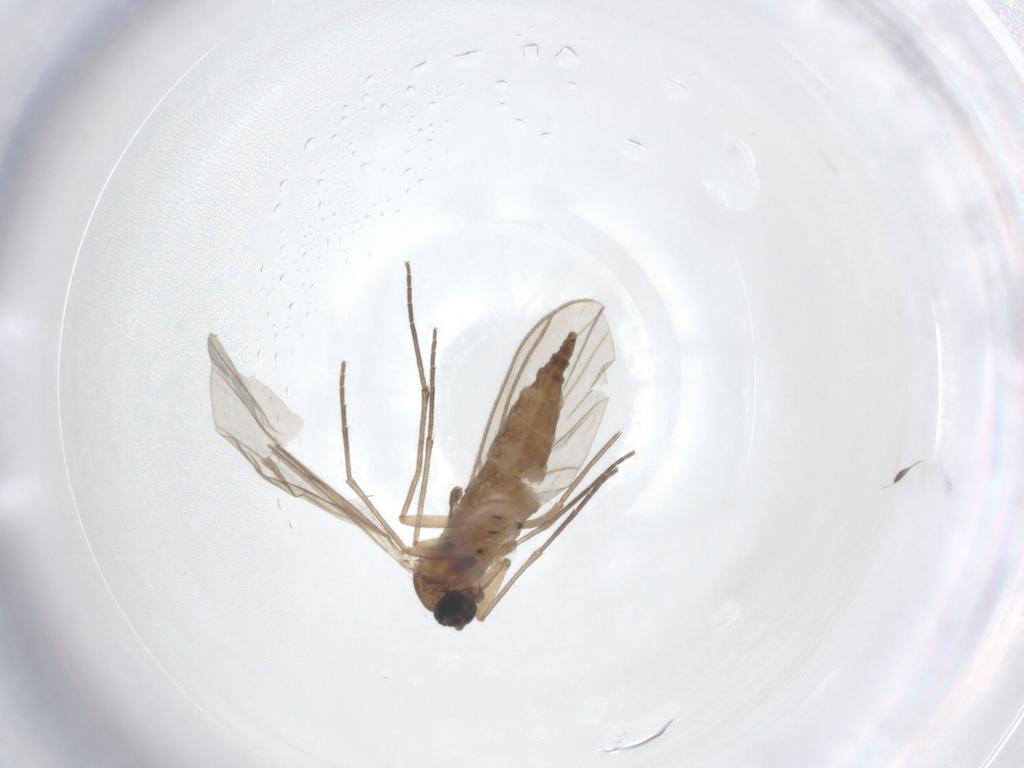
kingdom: Animalia
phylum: Arthropoda
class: Insecta
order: Diptera
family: Sciaridae
